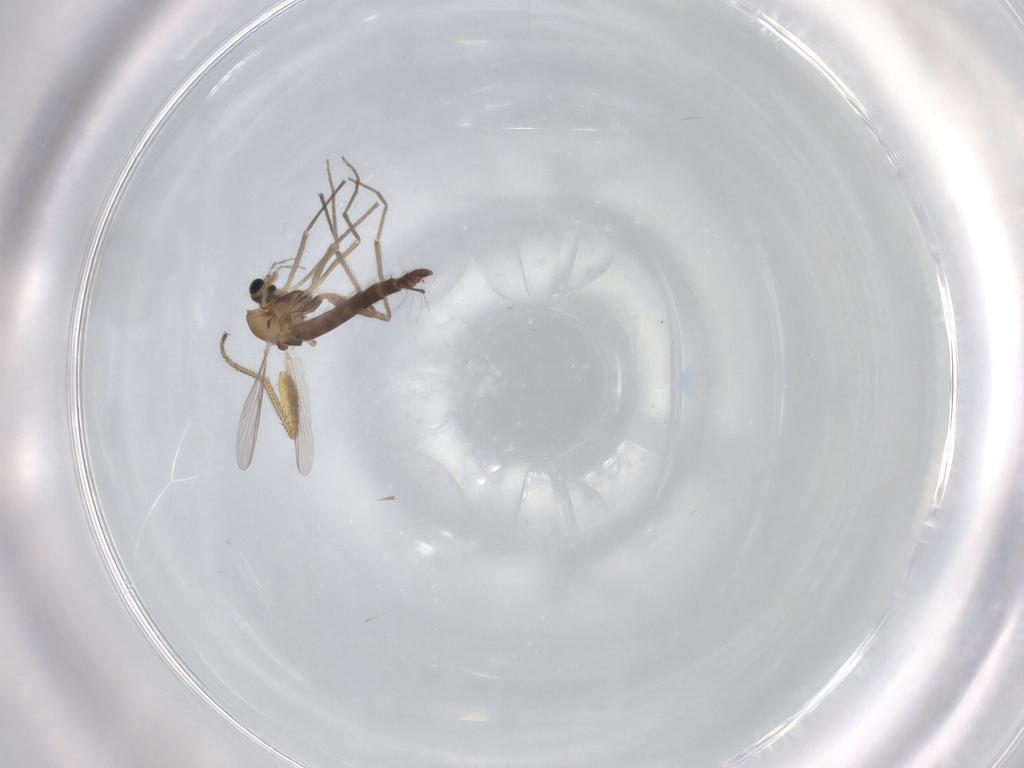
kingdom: Animalia
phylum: Arthropoda
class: Insecta
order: Diptera
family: Chironomidae
